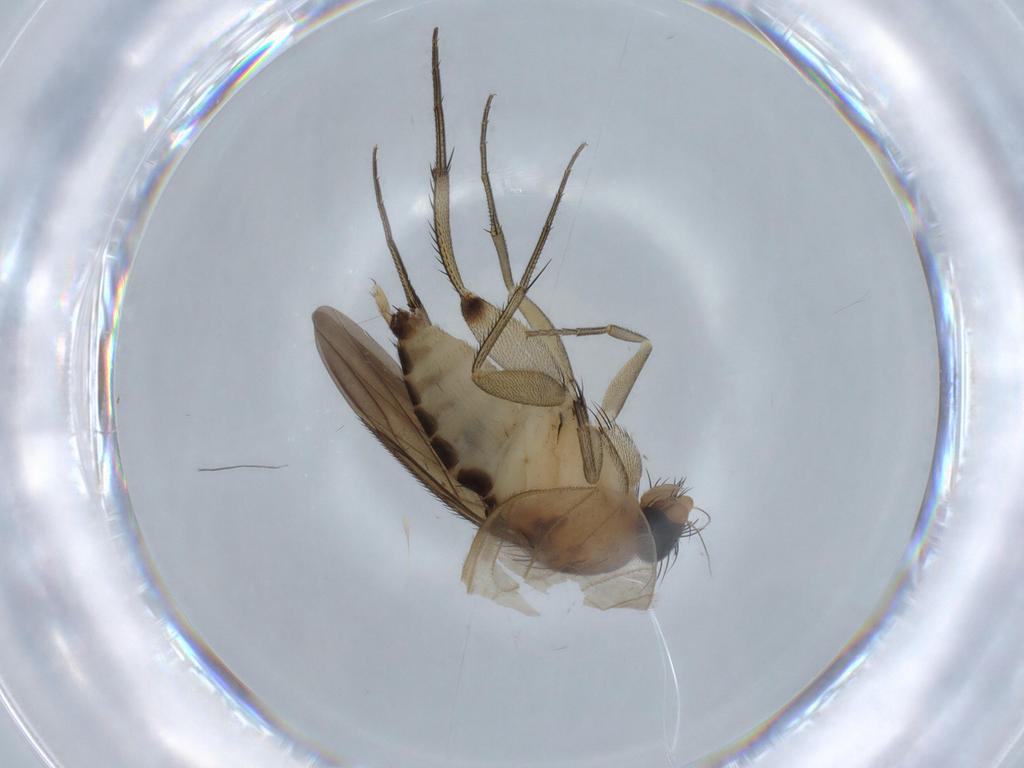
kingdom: Animalia
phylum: Arthropoda
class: Insecta
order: Diptera
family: Limoniidae
